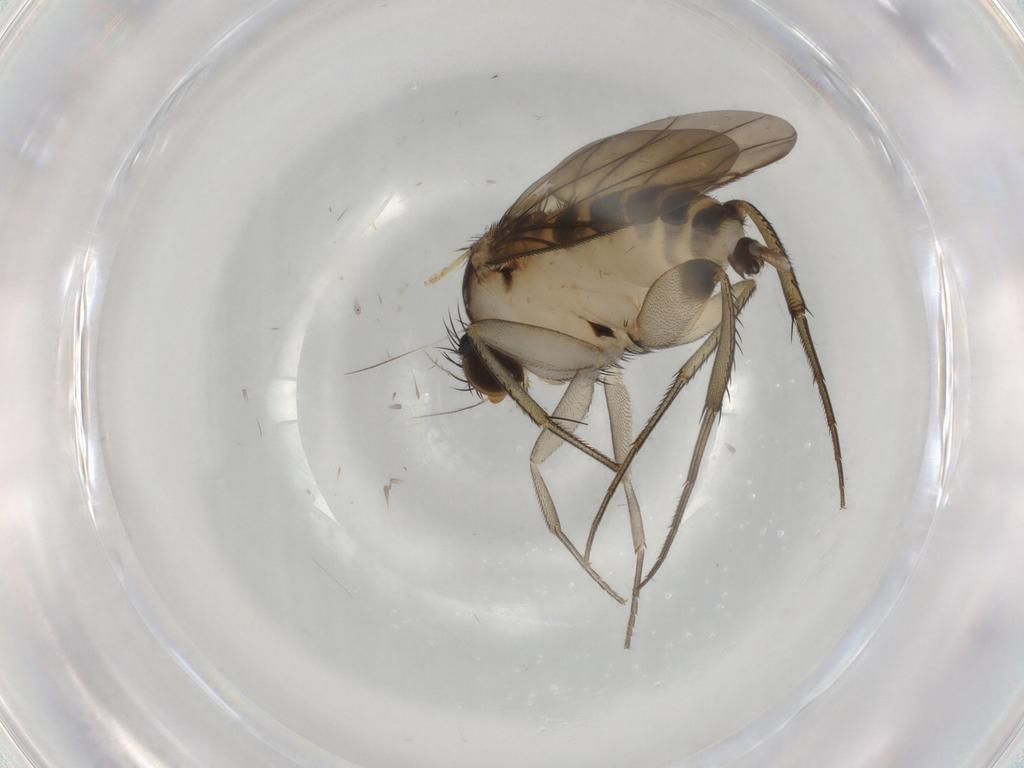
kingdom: Animalia
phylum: Arthropoda
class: Insecta
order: Diptera
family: Phoridae
